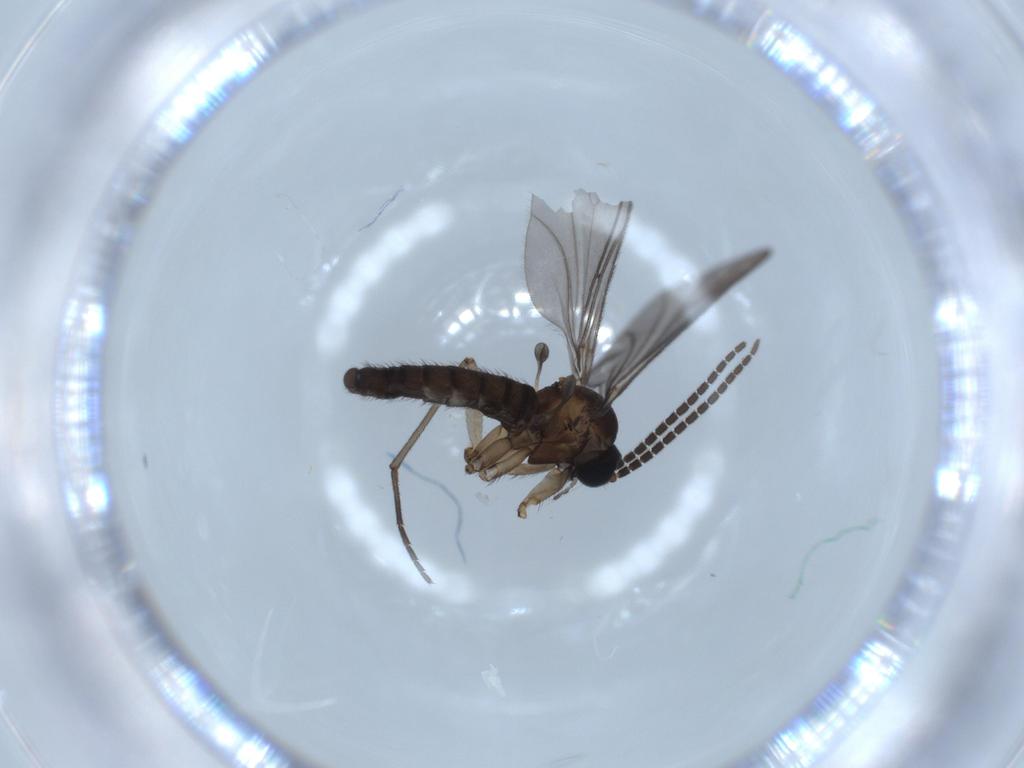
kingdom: Animalia
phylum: Arthropoda
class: Insecta
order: Diptera
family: Sciaridae
